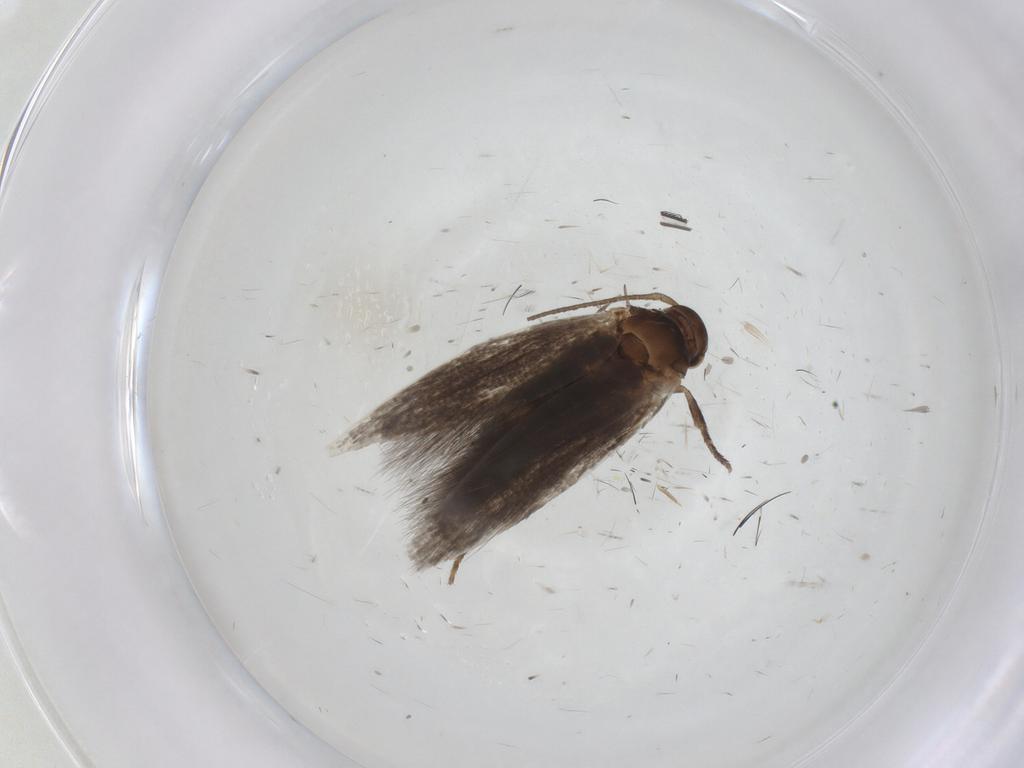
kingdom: Animalia
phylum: Arthropoda
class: Insecta
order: Lepidoptera
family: Elachistidae
